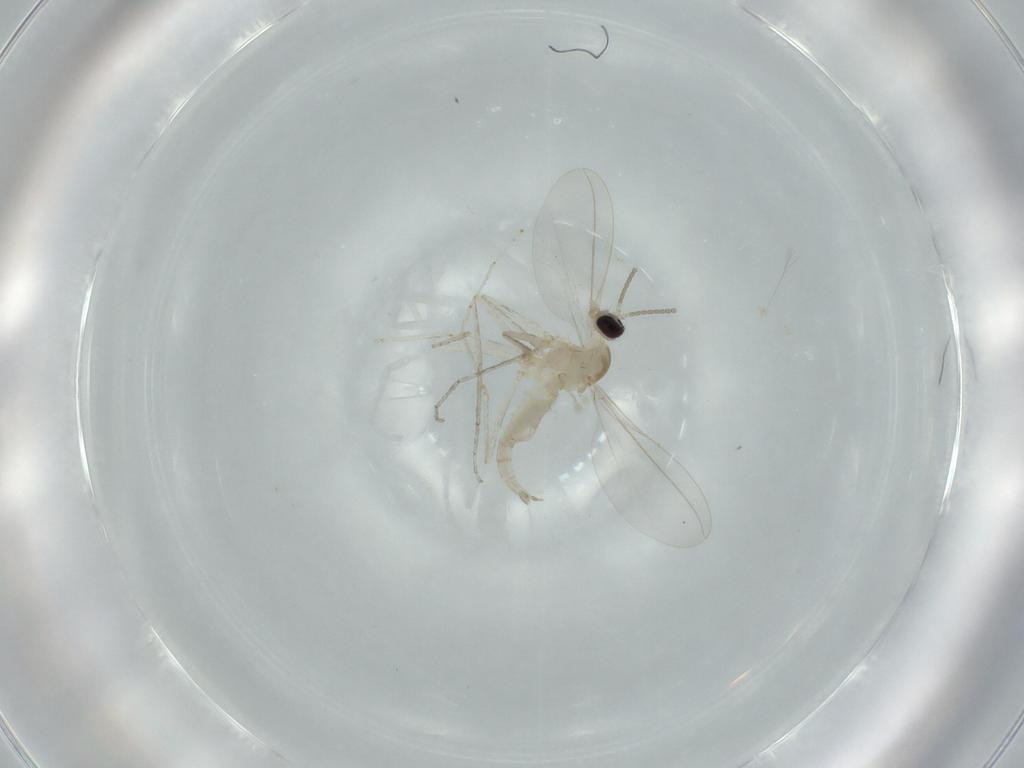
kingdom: Animalia
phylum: Arthropoda
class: Insecta
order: Diptera
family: Cecidomyiidae
